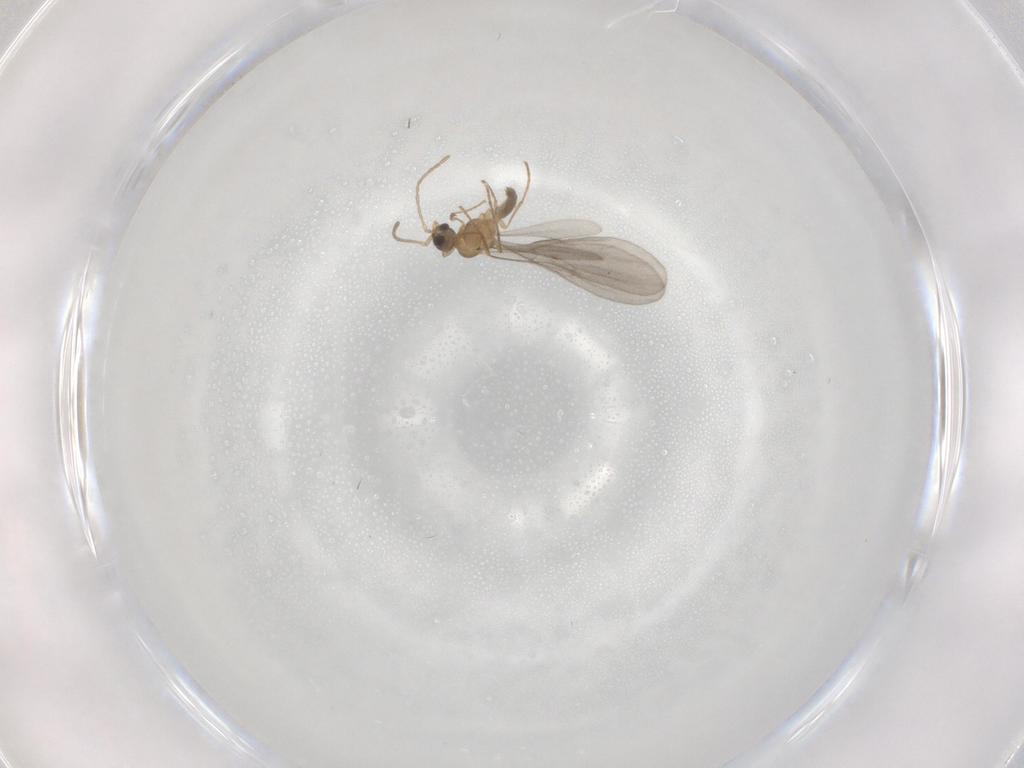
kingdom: Animalia
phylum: Arthropoda
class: Insecta
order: Hymenoptera
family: Formicidae
